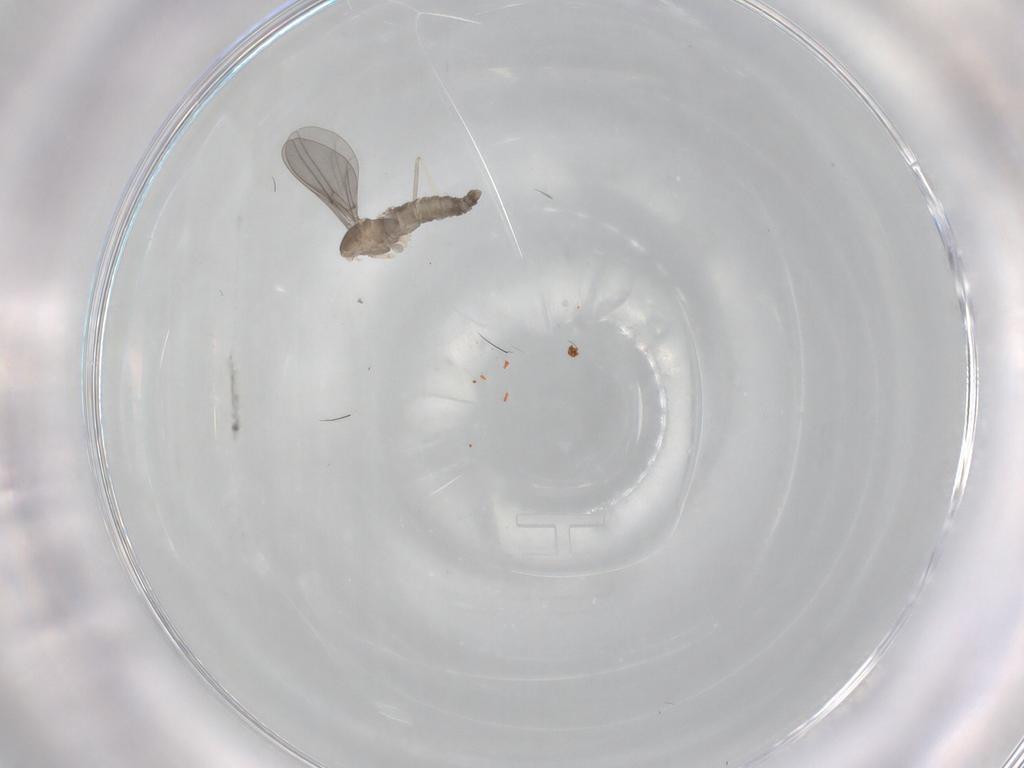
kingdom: Animalia
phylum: Arthropoda
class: Insecta
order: Diptera
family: Cecidomyiidae
